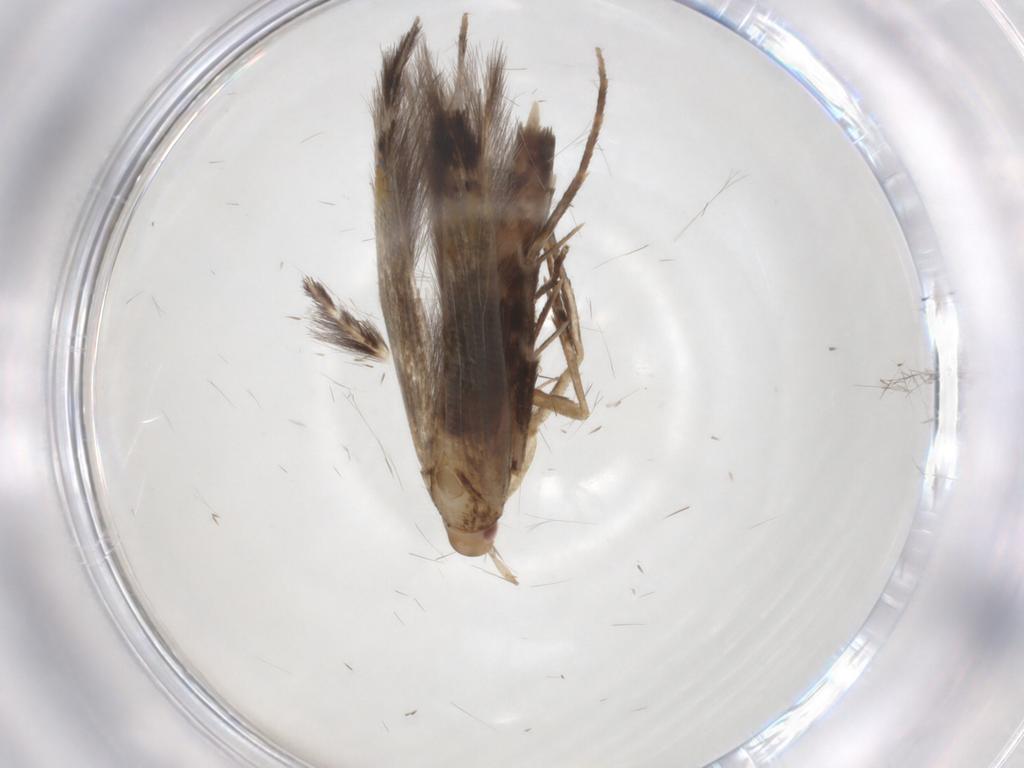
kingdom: Animalia
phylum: Arthropoda
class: Insecta
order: Lepidoptera
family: Cosmopterigidae
